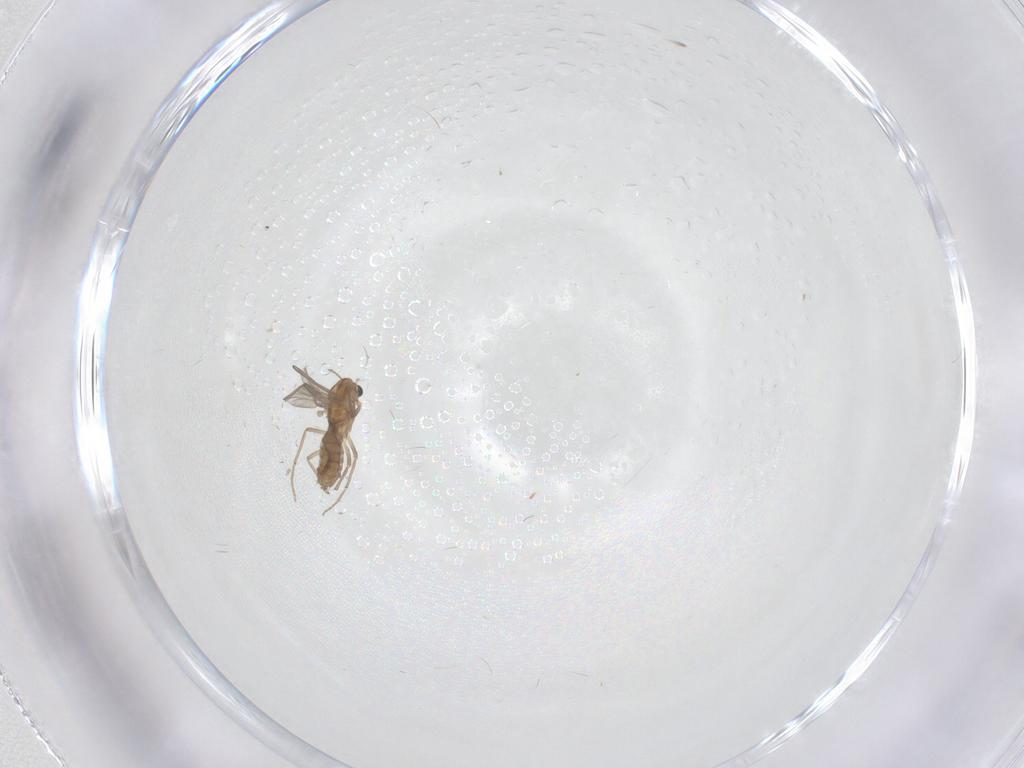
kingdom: Animalia
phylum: Arthropoda
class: Insecta
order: Diptera
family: Chironomidae
